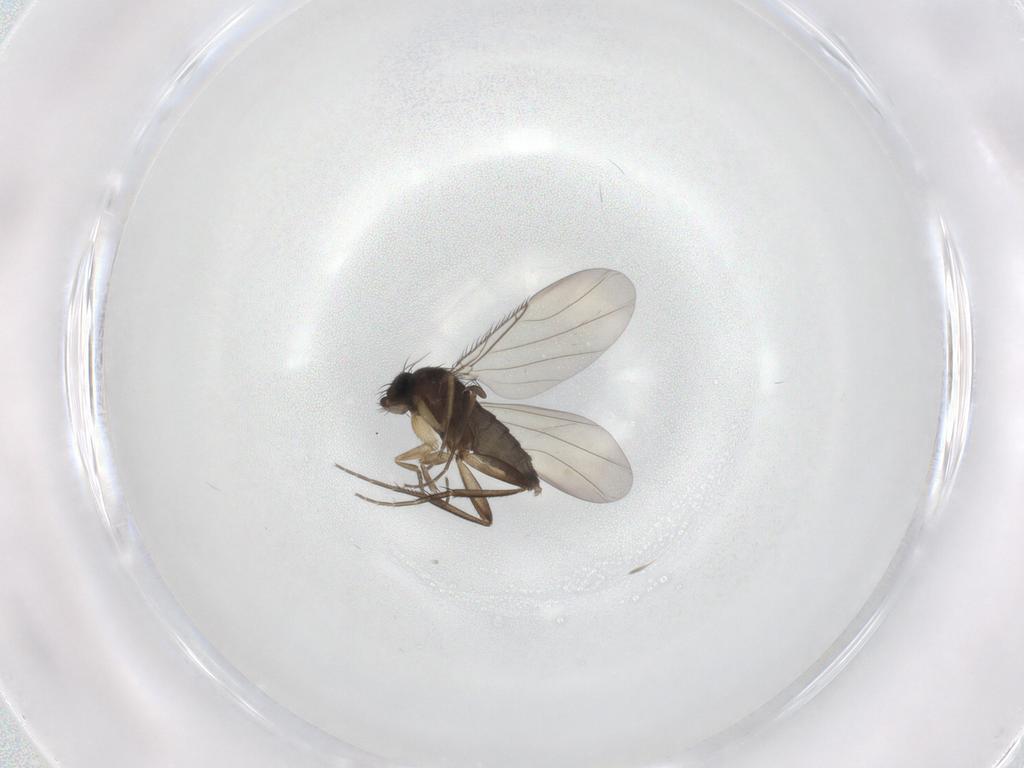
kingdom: Animalia
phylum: Arthropoda
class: Insecta
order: Diptera
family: Phoridae
